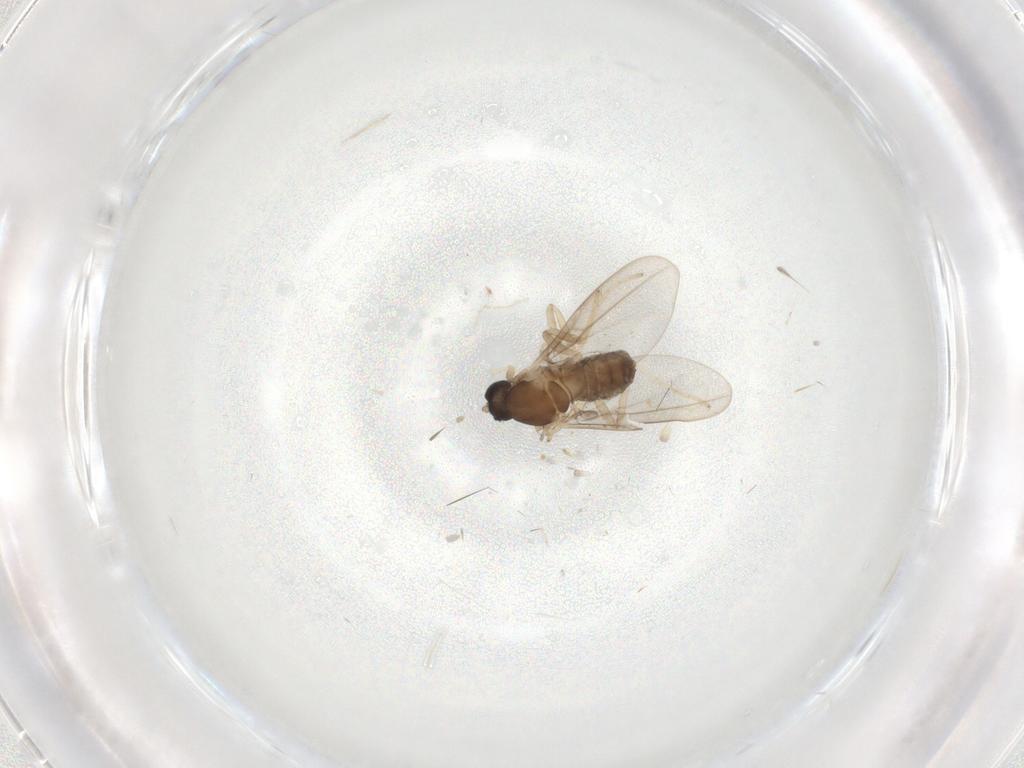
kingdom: Animalia
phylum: Arthropoda
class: Insecta
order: Diptera
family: Cecidomyiidae
